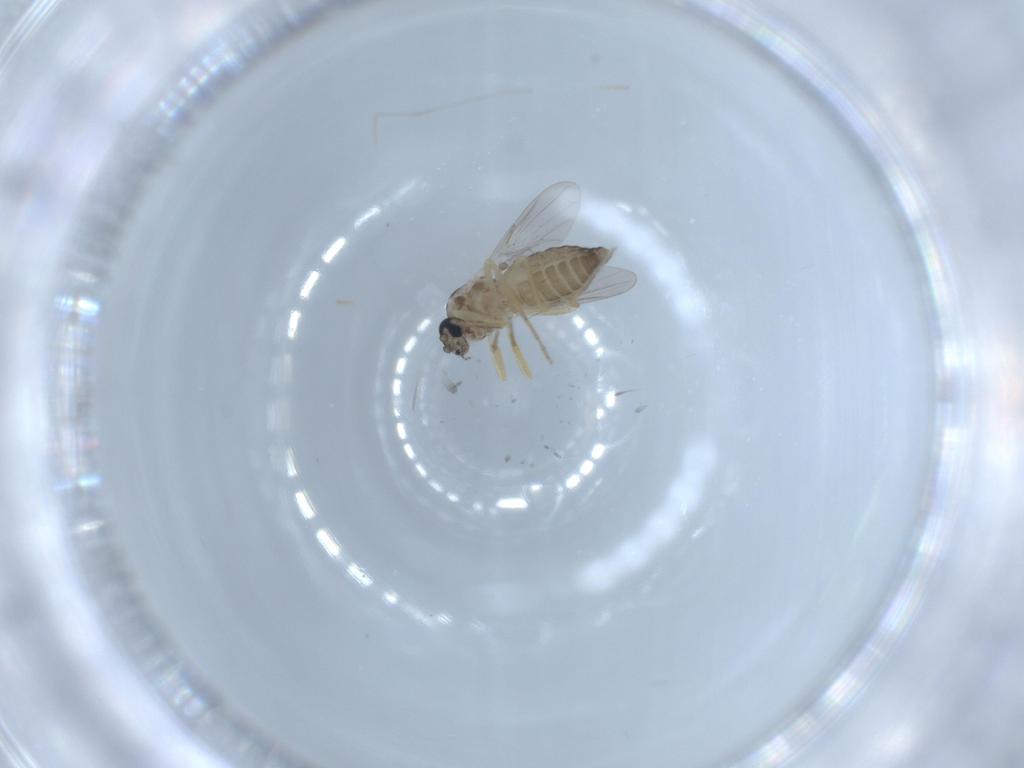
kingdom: Animalia
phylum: Arthropoda
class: Insecta
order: Diptera
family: Ceratopogonidae
